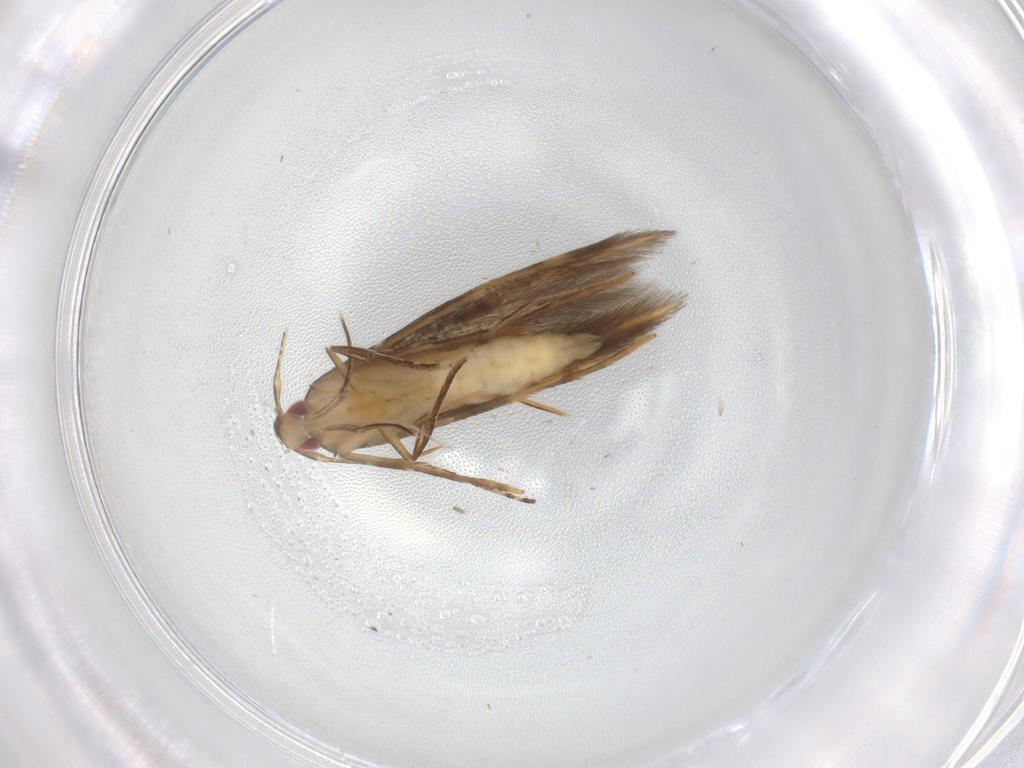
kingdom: Animalia
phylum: Arthropoda
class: Insecta
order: Lepidoptera
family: Gelechiidae
